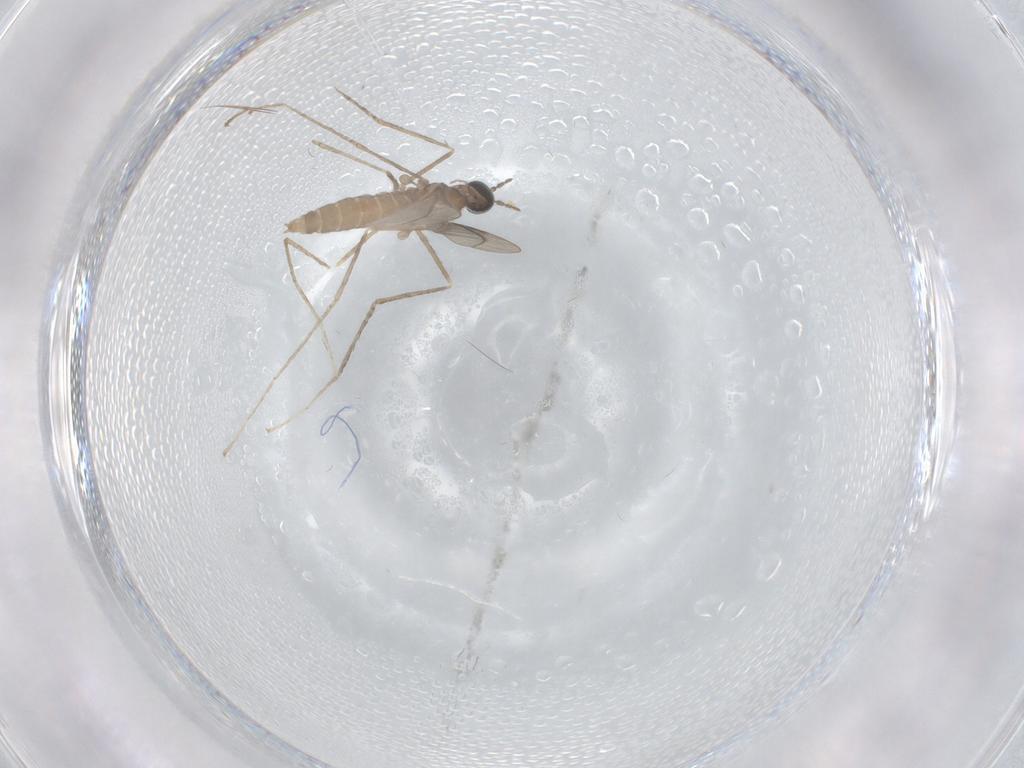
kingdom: Animalia
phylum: Arthropoda
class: Insecta
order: Diptera
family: Cecidomyiidae
